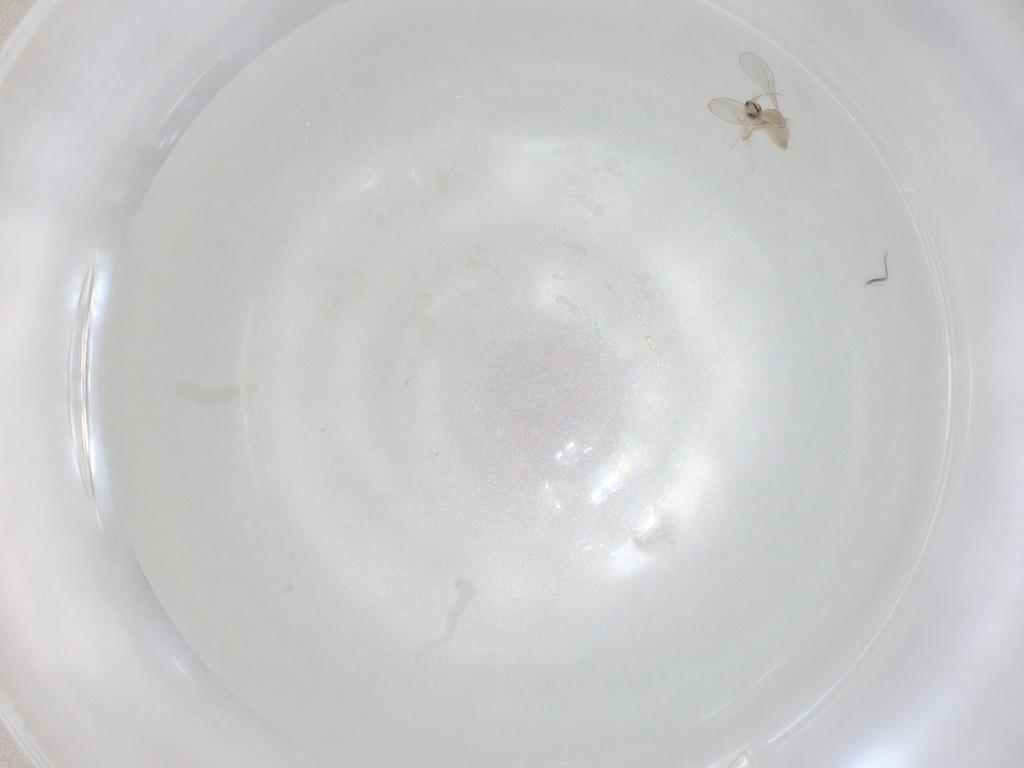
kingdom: Animalia
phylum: Arthropoda
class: Insecta
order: Diptera
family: Cecidomyiidae
